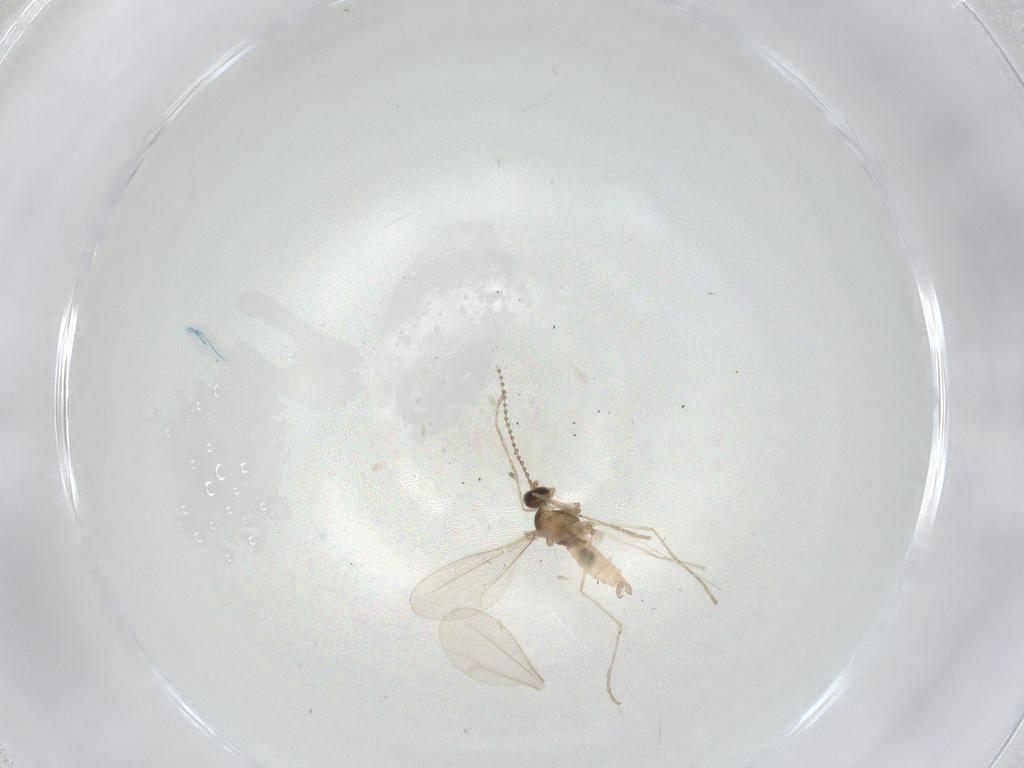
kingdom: Animalia
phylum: Arthropoda
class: Insecta
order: Diptera
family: Cecidomyiidae
